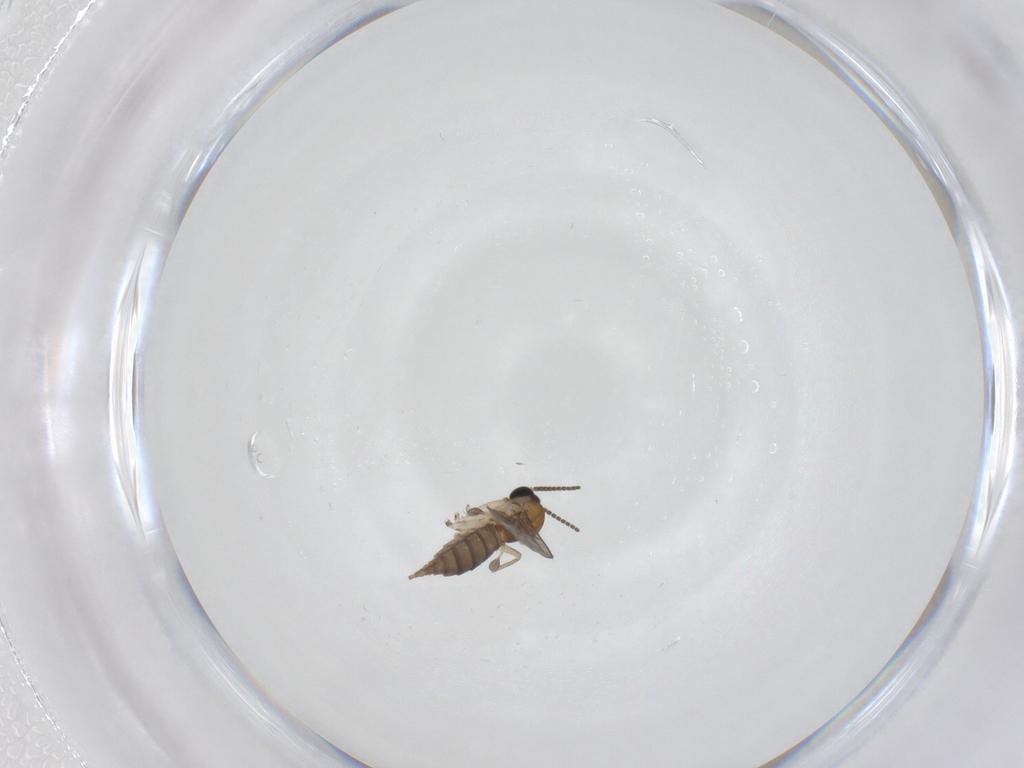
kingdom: Animalia
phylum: Arthropoda
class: Insecta
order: Diptera
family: Sciaridae
